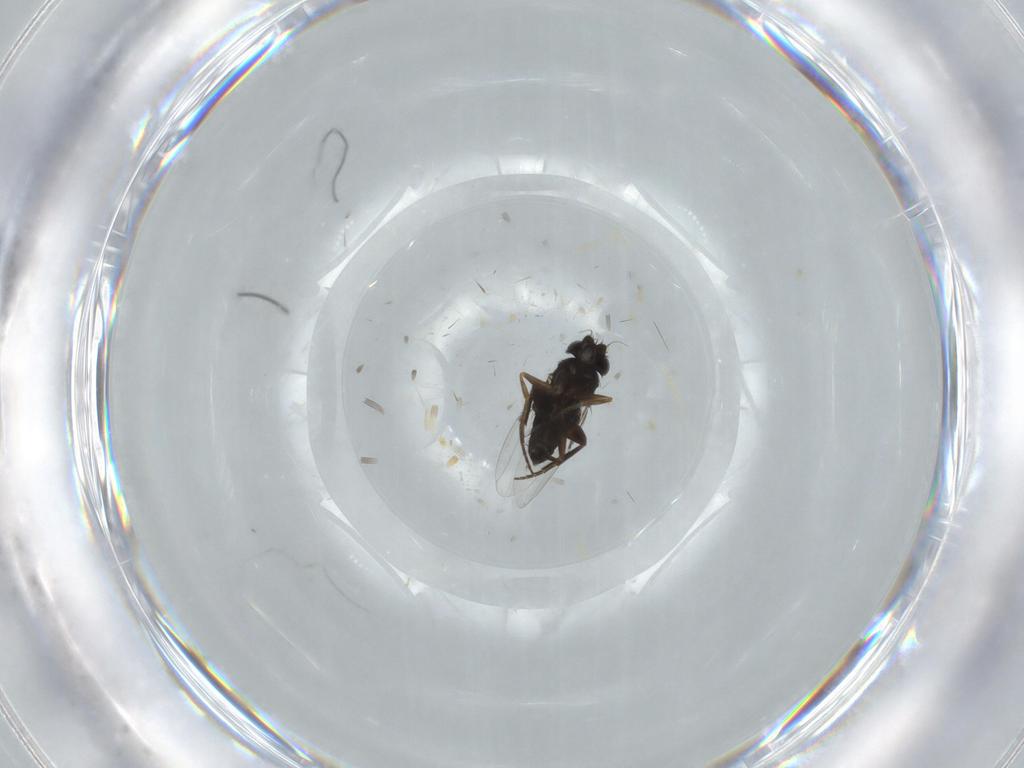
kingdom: Animalia
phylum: Arthropoda
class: Insecta
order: Diptera
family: Phoridae
